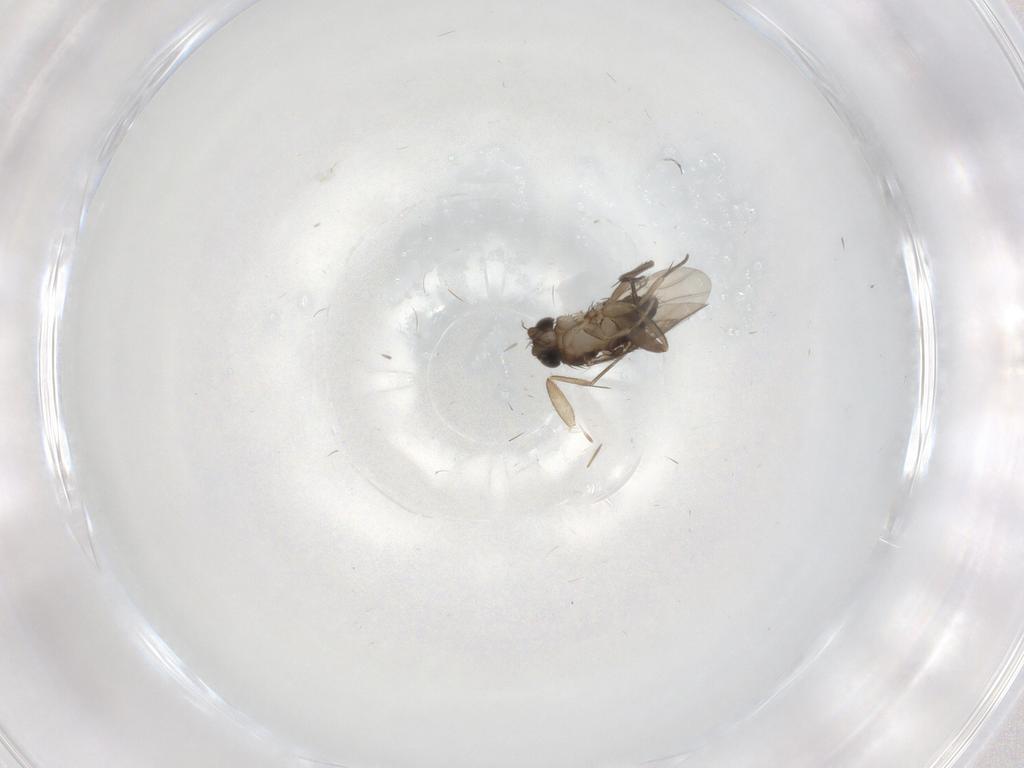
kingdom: Animalia
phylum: Arthropoda
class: Insecta
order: Diptera
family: Phoridae
